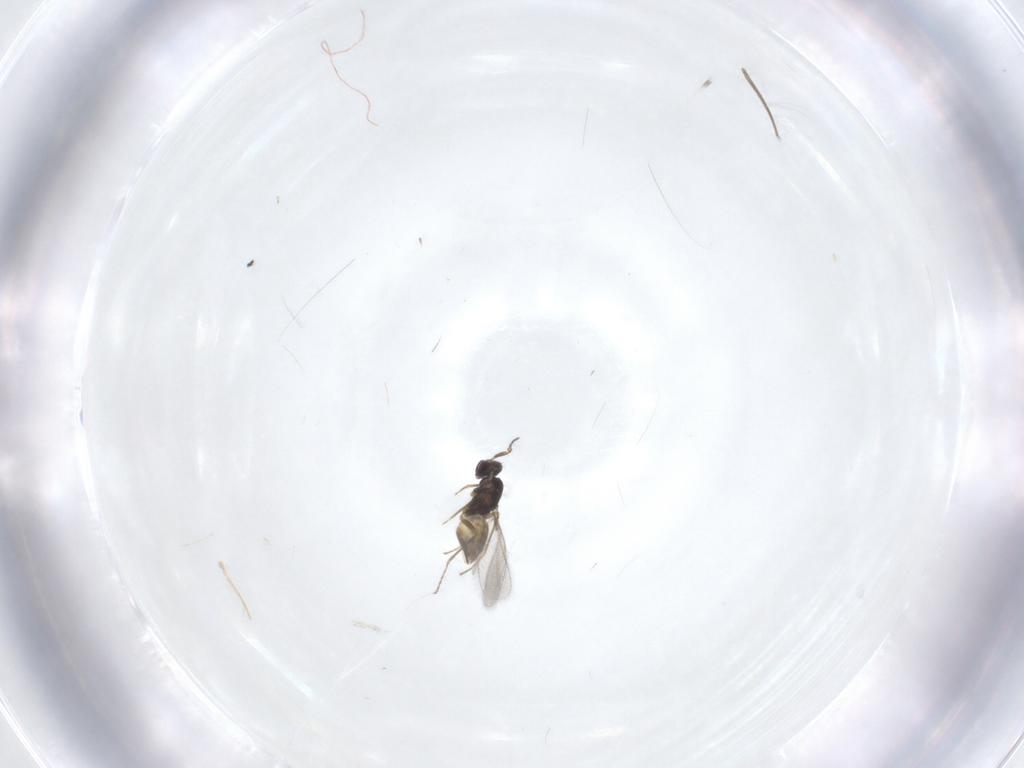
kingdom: Animalia
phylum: Arthropoda
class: Insecta
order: Hymenoptera
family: Mymaridae
